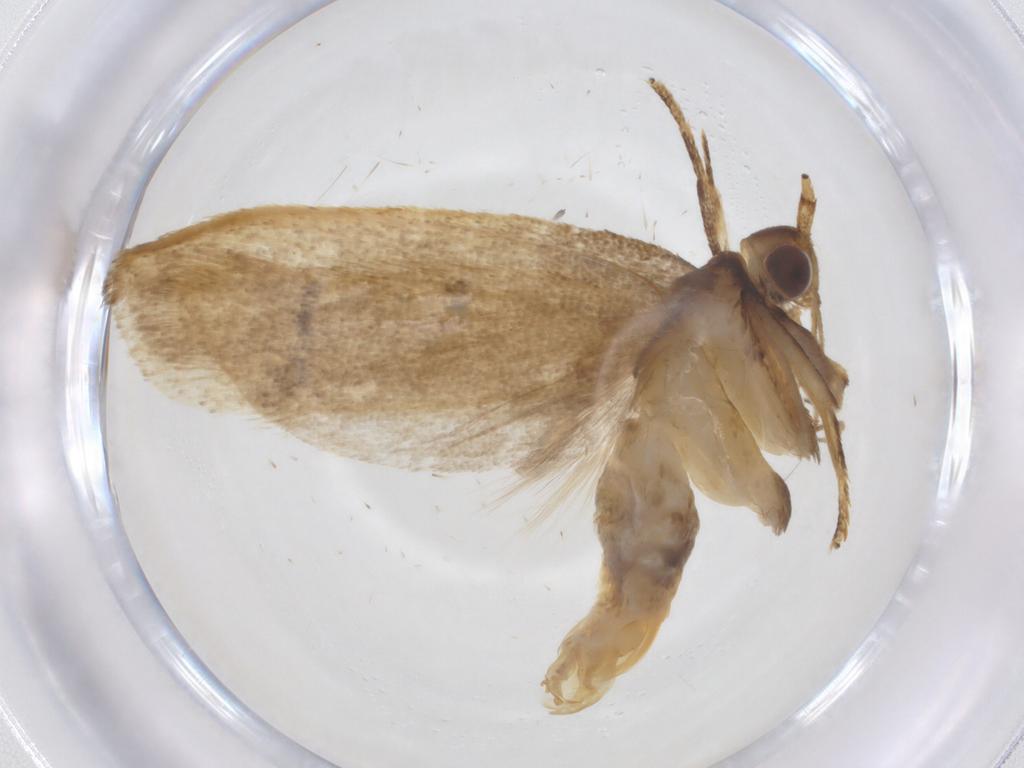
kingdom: Animalia
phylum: Arthropoda
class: Insecta
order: Lepidoptera
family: Lecithoceridae
